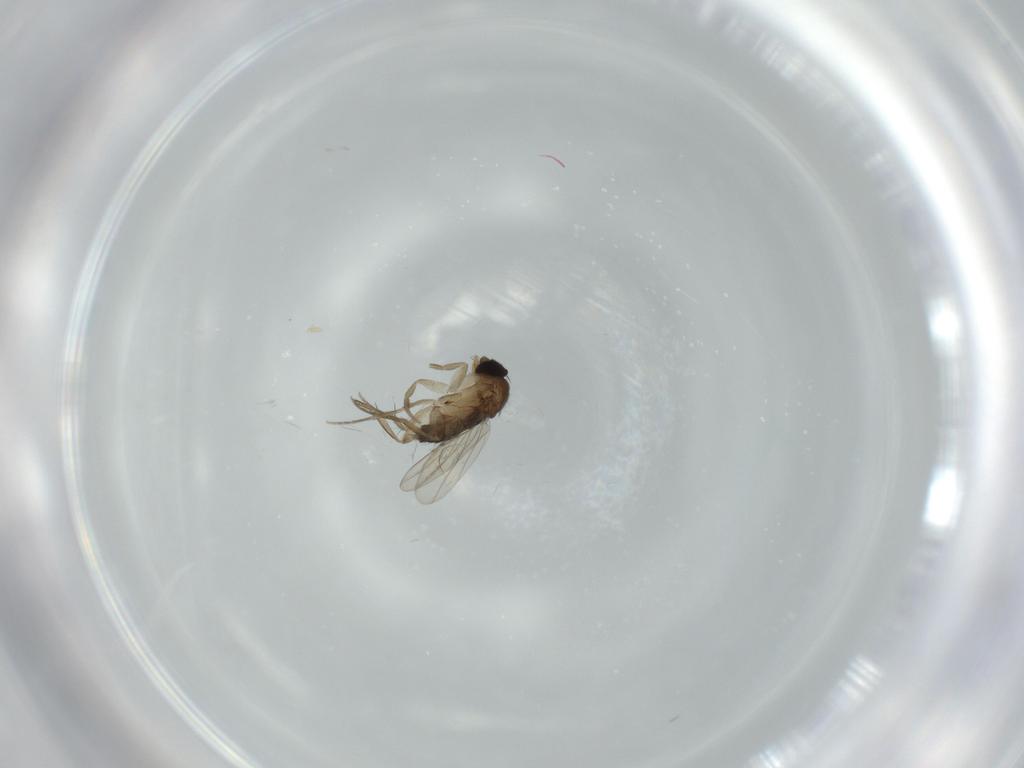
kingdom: Animalia
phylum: Arthropoda
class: Insecta
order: Diptera
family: Phoridae
